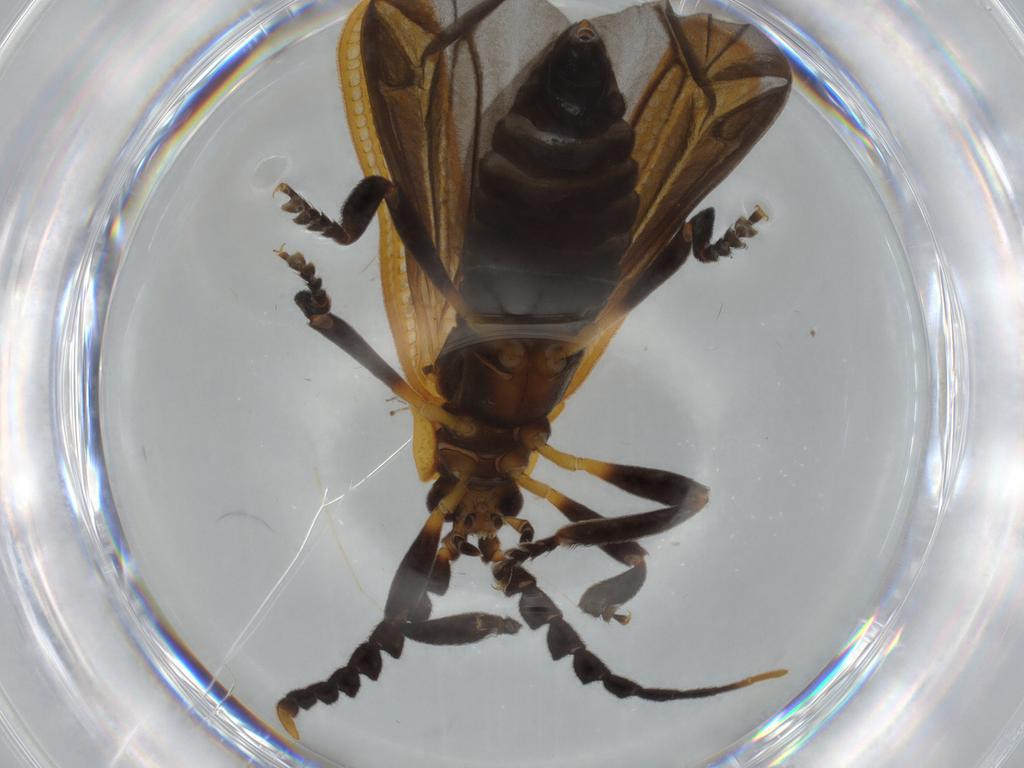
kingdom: Animalia
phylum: Arthropoda
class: Insecta
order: Coleoptera
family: Lycidae
